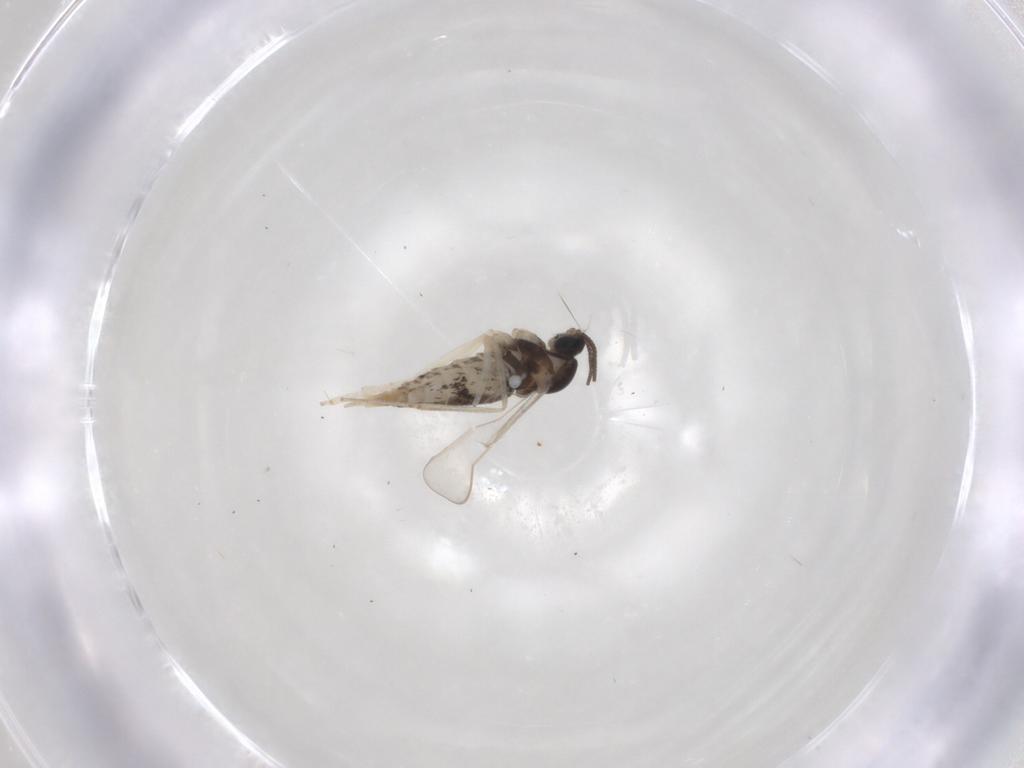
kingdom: Animalia
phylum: Arthropoda
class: Insecta
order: Diptera
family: Cecidomyiidae
